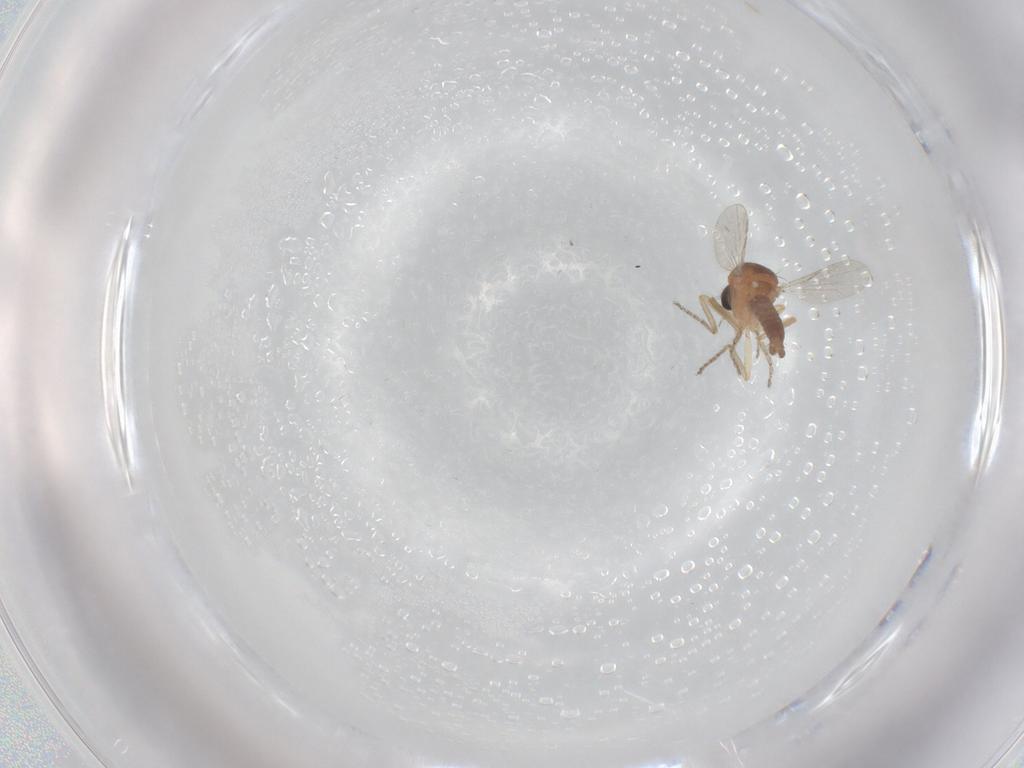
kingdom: Animalia
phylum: Arthropoda
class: Insecta
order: Diptera
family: Ceratopogonidae
